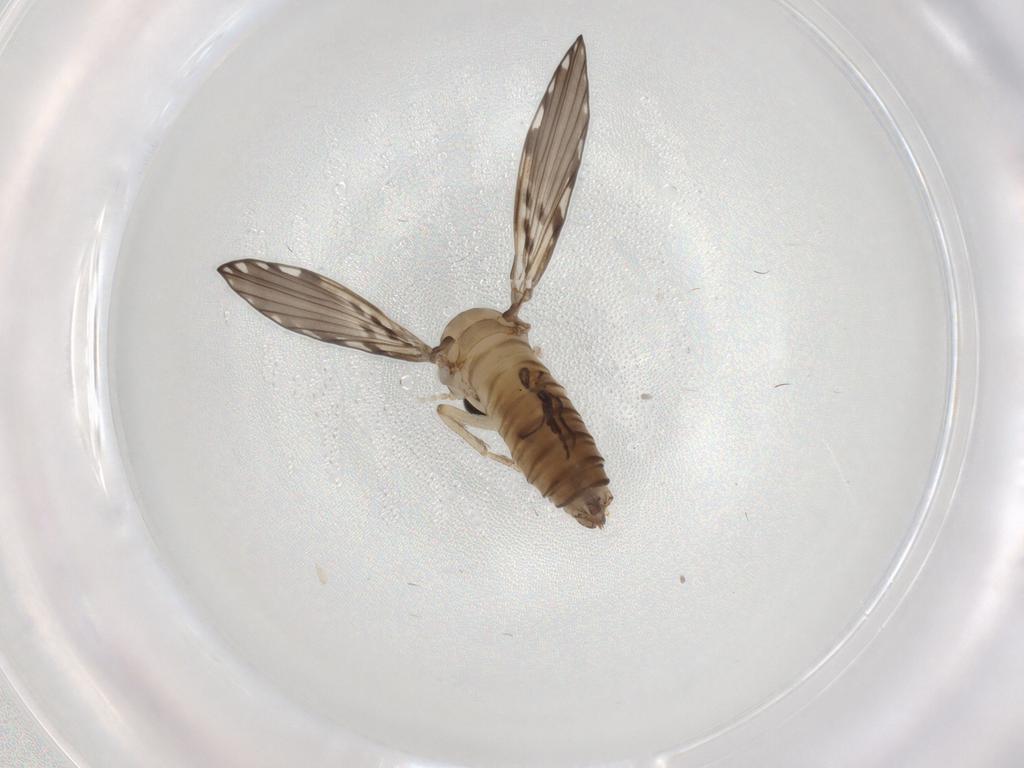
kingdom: Animalia
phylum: Arthropoda
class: Insecta
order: Diptera
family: Psychodidae
